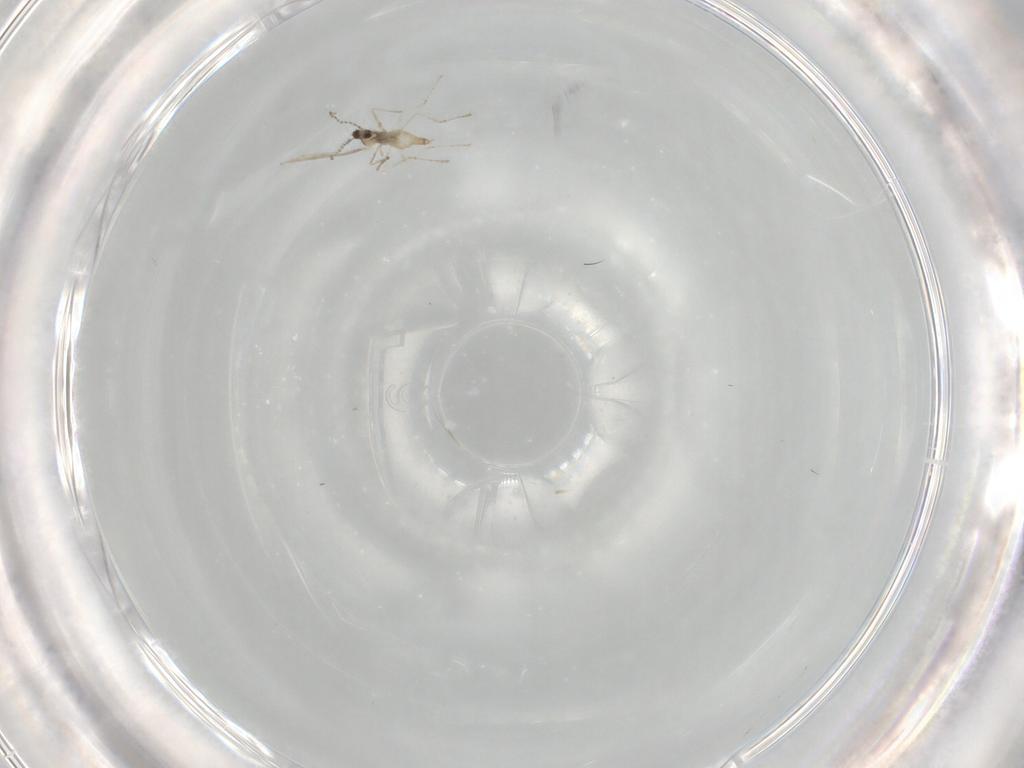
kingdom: Animalia
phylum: Arthropoda
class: Insecta
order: Diptera
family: Cecidomyiidae
